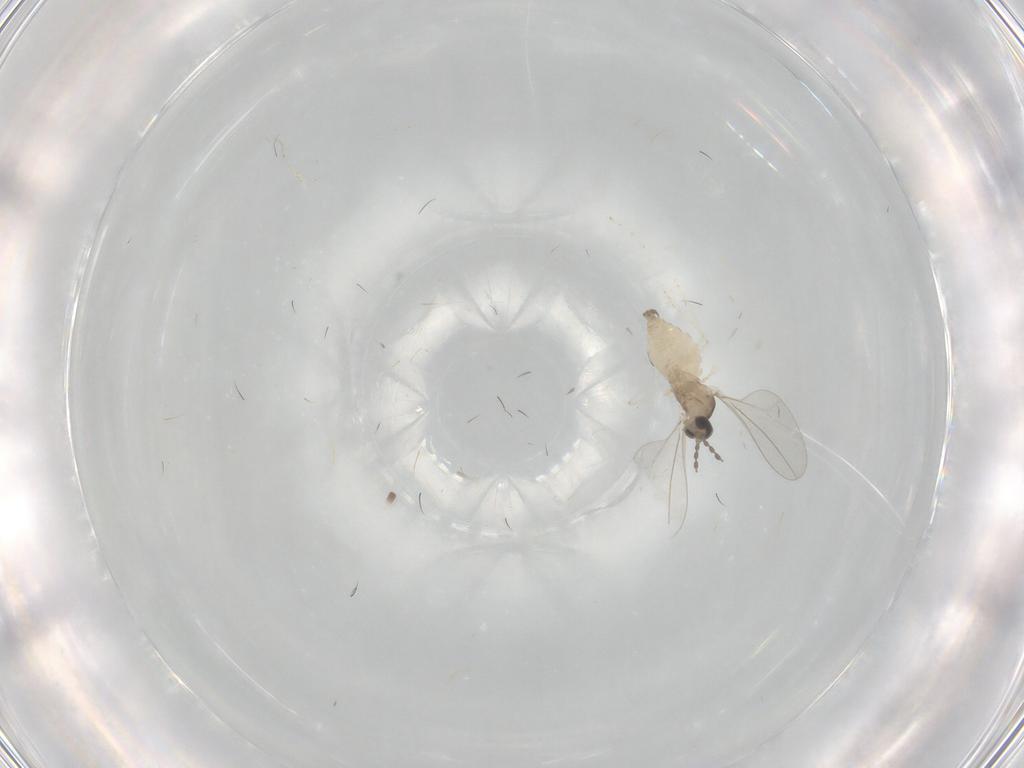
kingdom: Animalia
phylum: Arthropoda
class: Insecta
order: Diptera
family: Cecidomyiidae
